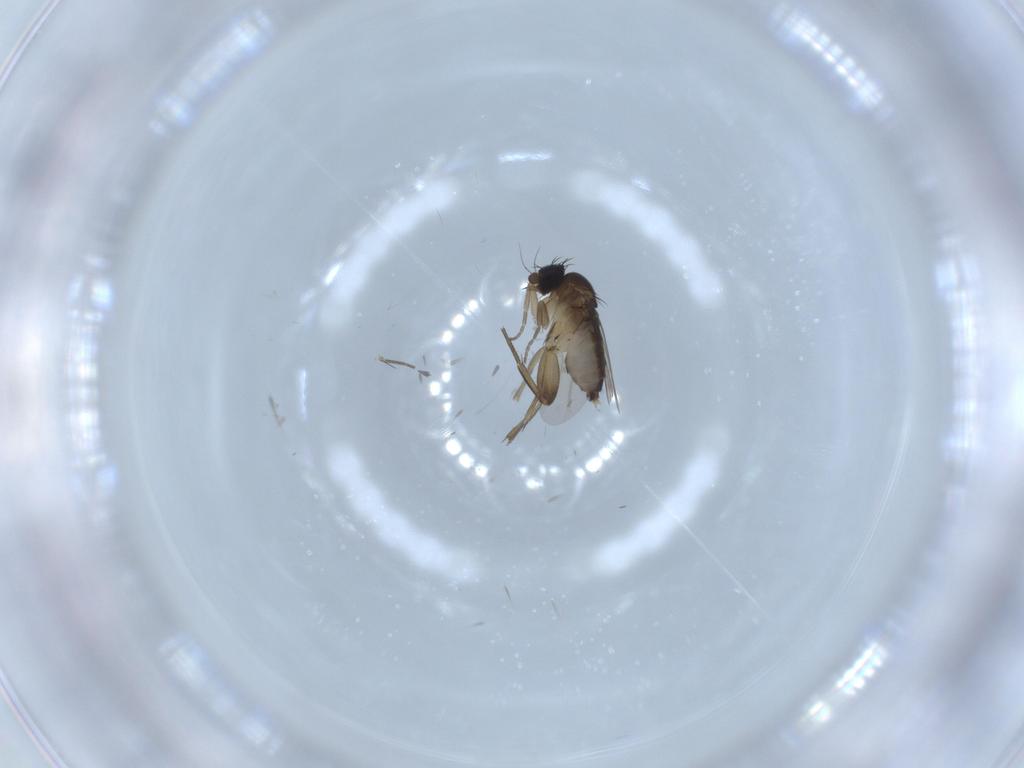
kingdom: Animalia
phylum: Arthropoda
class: Insecta
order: Diptera
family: Phoridae
